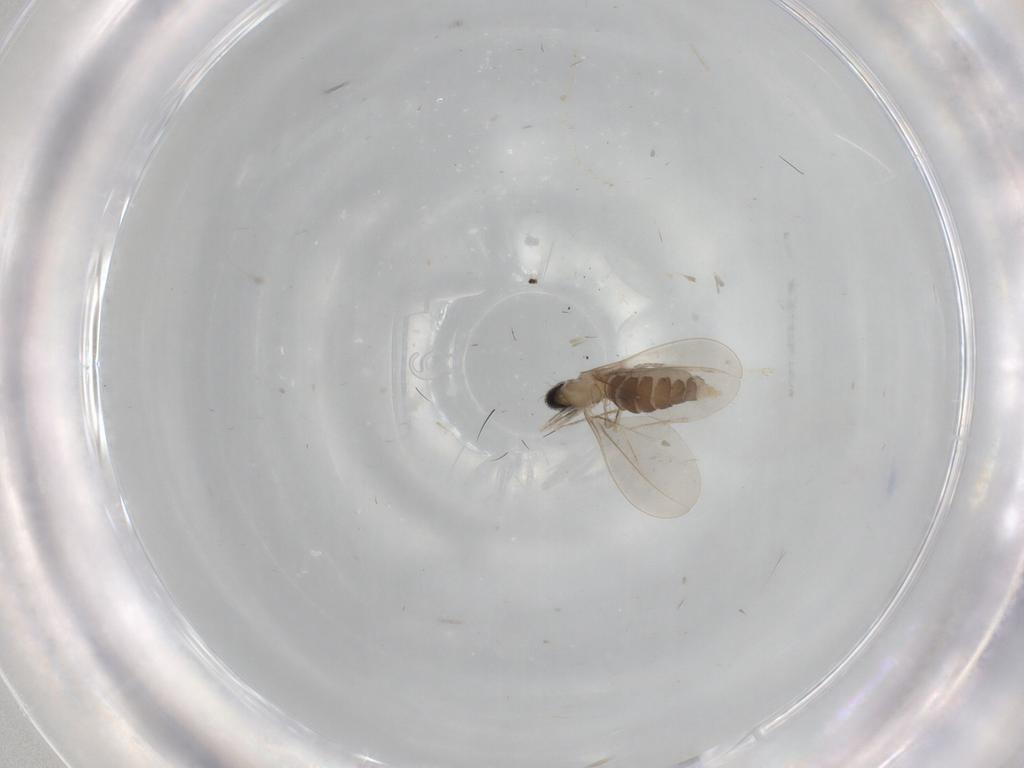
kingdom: Animalia
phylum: Arthropoda
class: Insecta
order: Diptera
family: Cecidomyiidae
